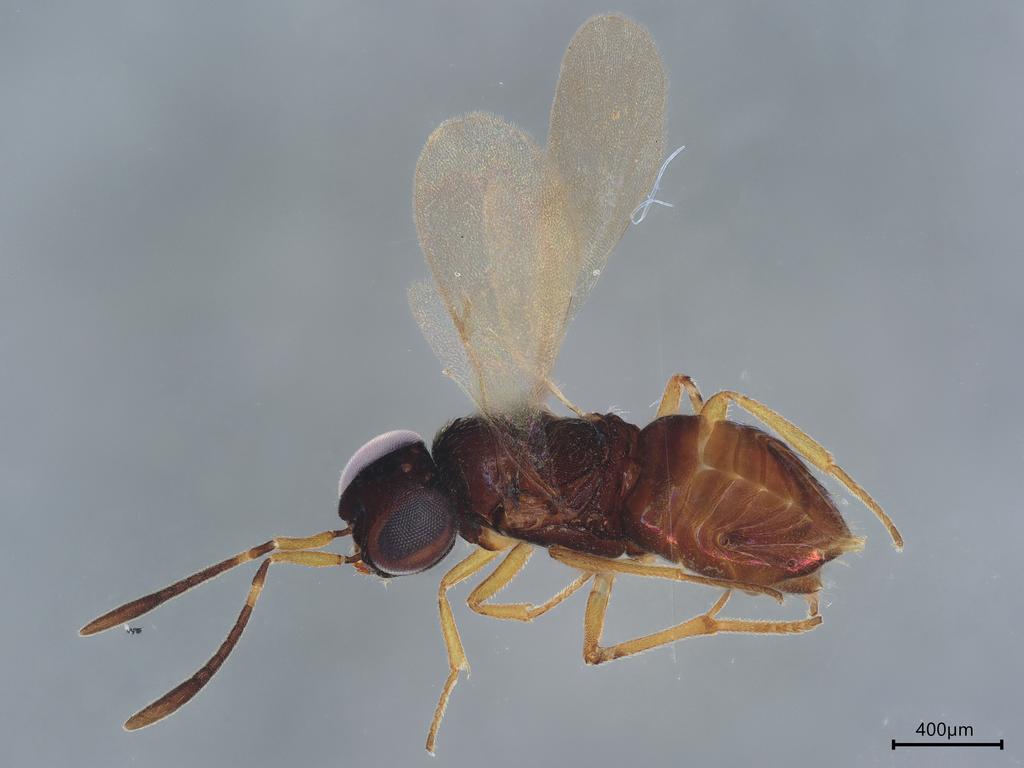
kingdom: Animalia
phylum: Arthropoda
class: Insecta
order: Hymenoptera
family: Encyrtidae
